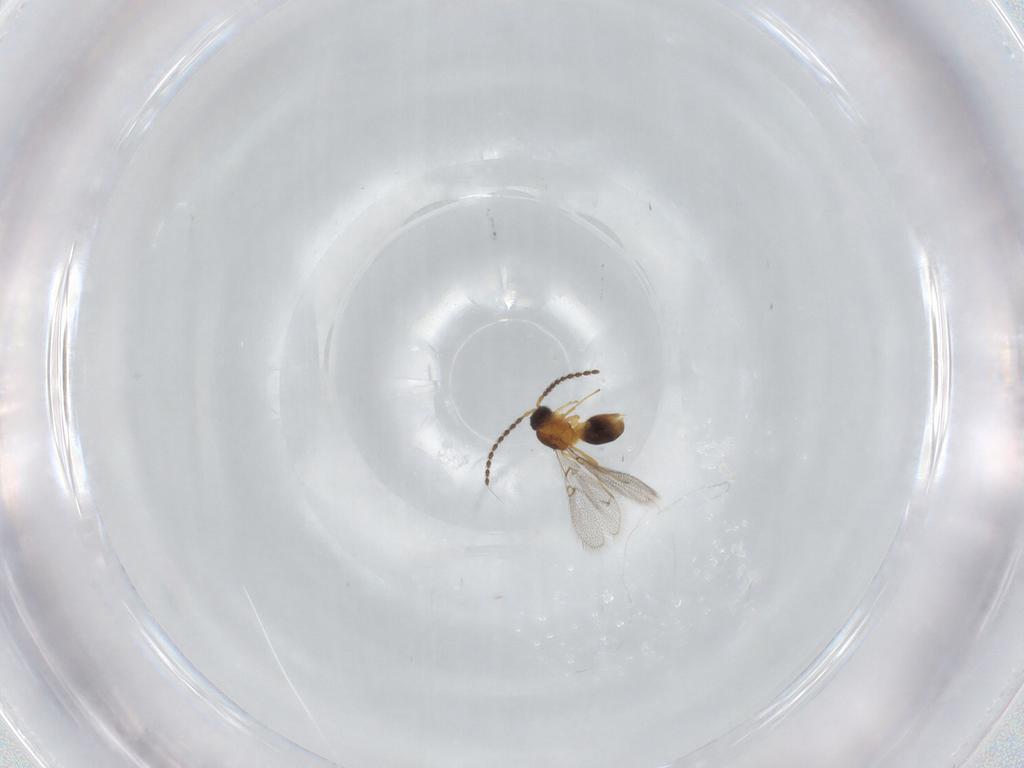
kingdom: Animalia
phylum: Arthropoda
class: Insecta
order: Hymenoptera
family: Figitidae
